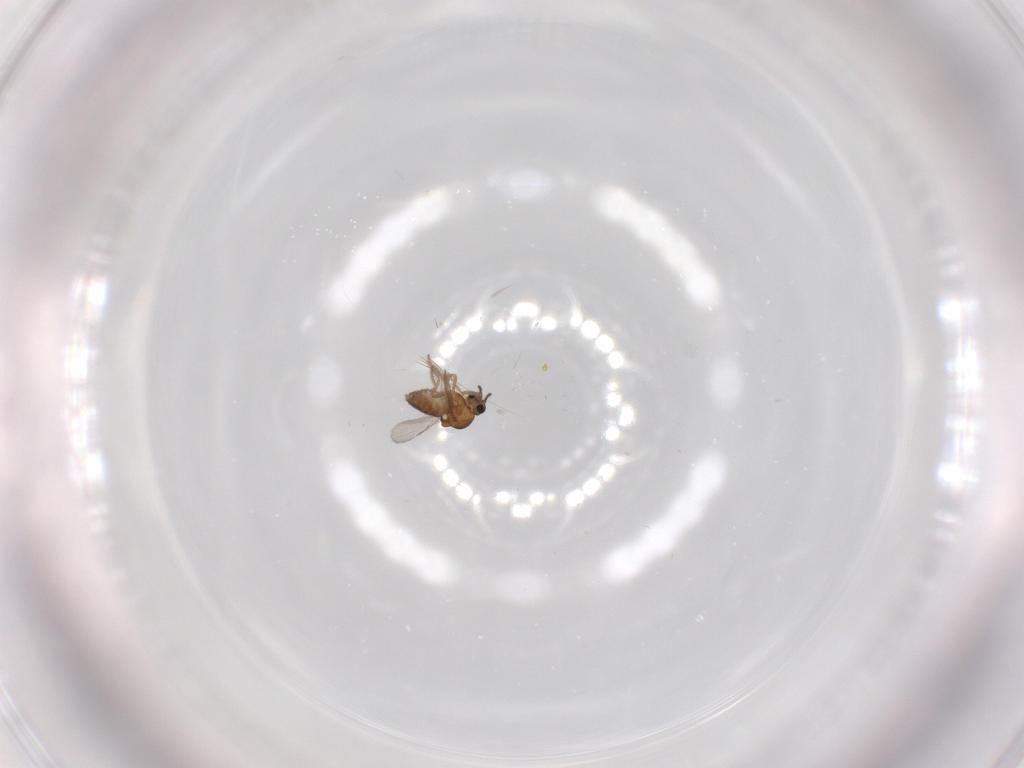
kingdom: Animalia
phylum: Arthropoda
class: Insecta
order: Diptera
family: Ceratopogonidae
